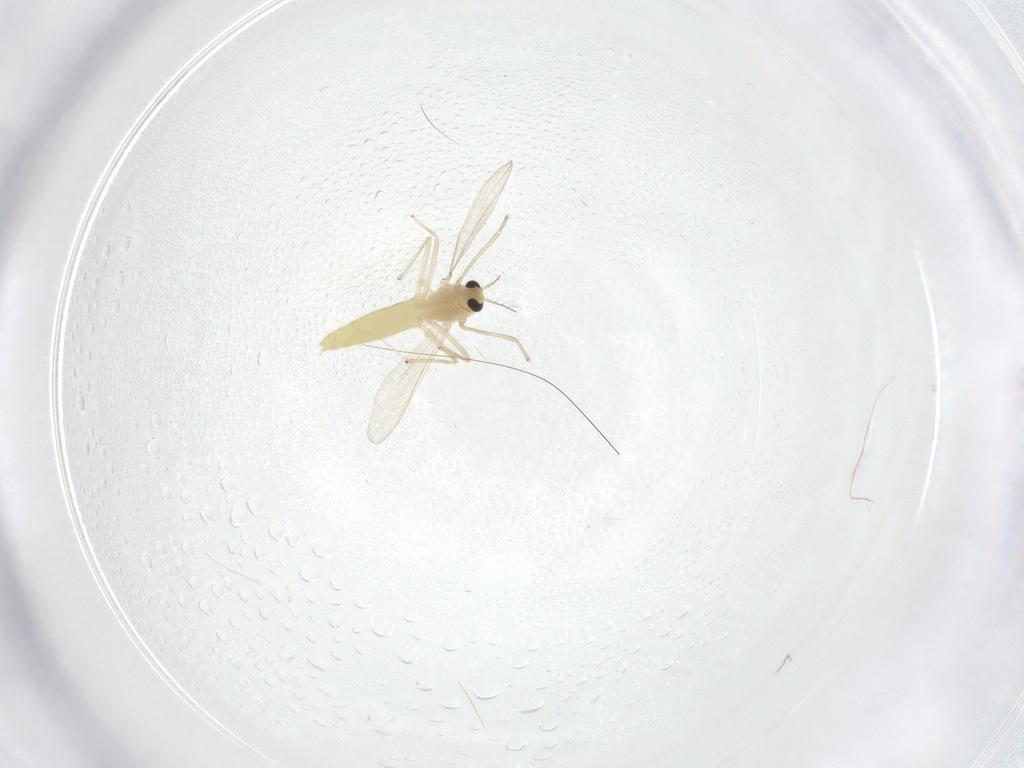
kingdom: Animalia
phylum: Arthropoda
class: Insecta
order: Diptera
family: Chironomidae
